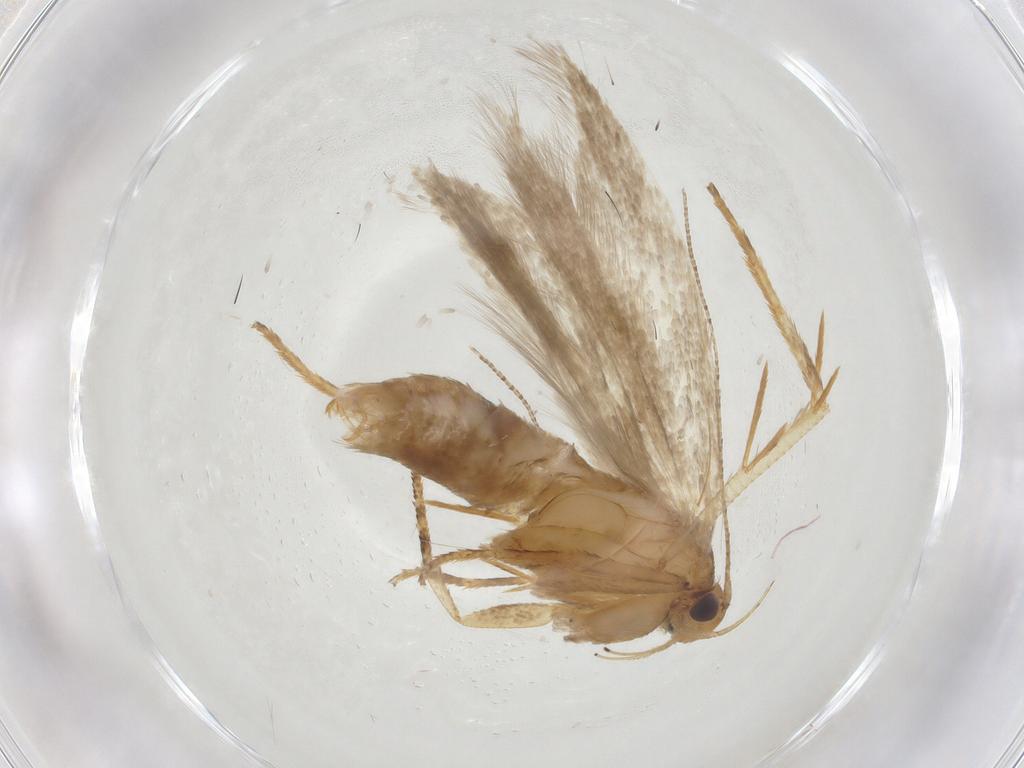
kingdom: Animalia
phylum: Arthropoda
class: Insecta
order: Lepidoptera
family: Gelechiidae
